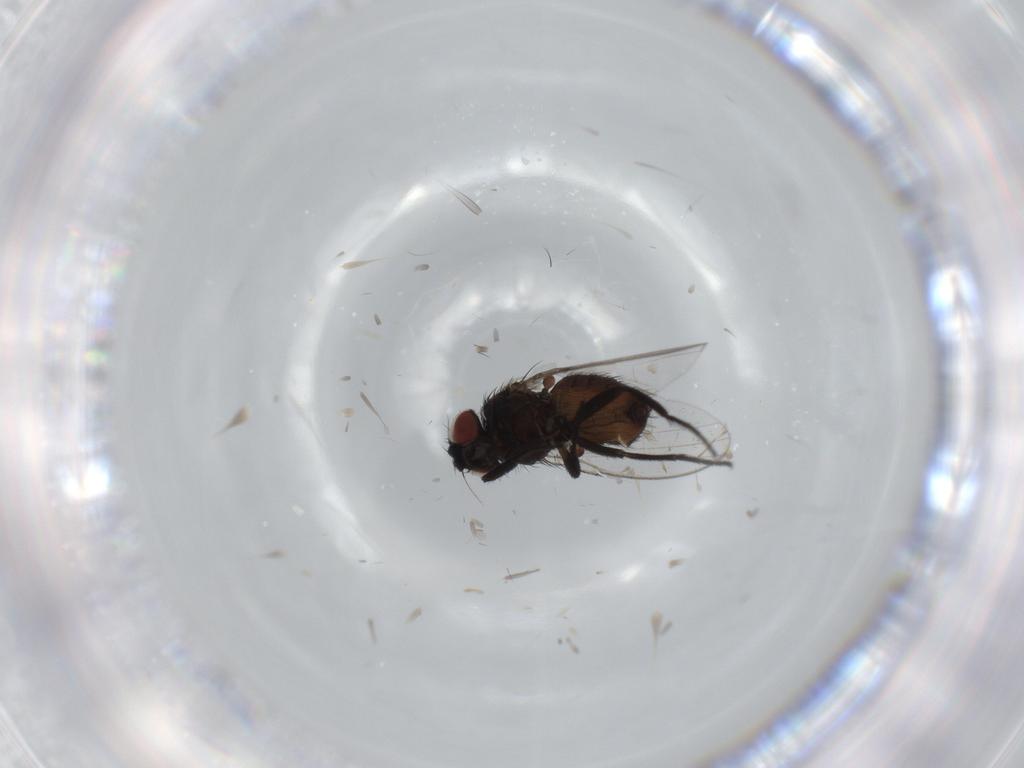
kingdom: Animalia
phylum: Arthropoda
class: Insecta
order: Diptera
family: Milichiidae
